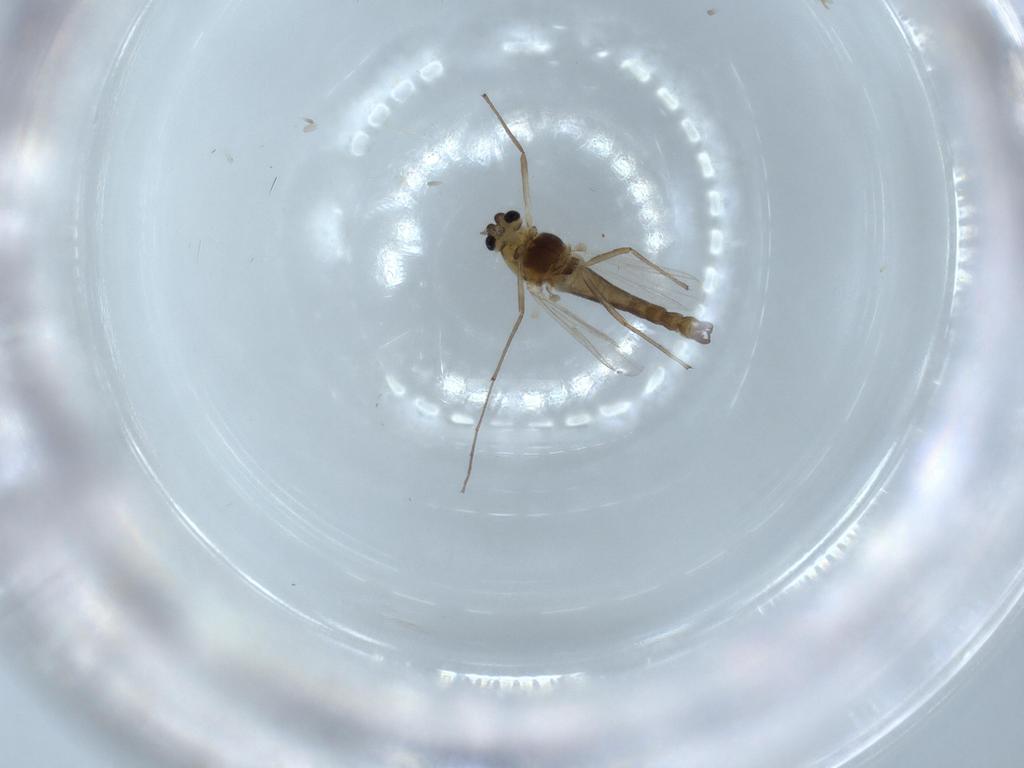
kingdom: Animalia
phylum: Arthropoda
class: Insecta
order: Diptera
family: Chironomidae
